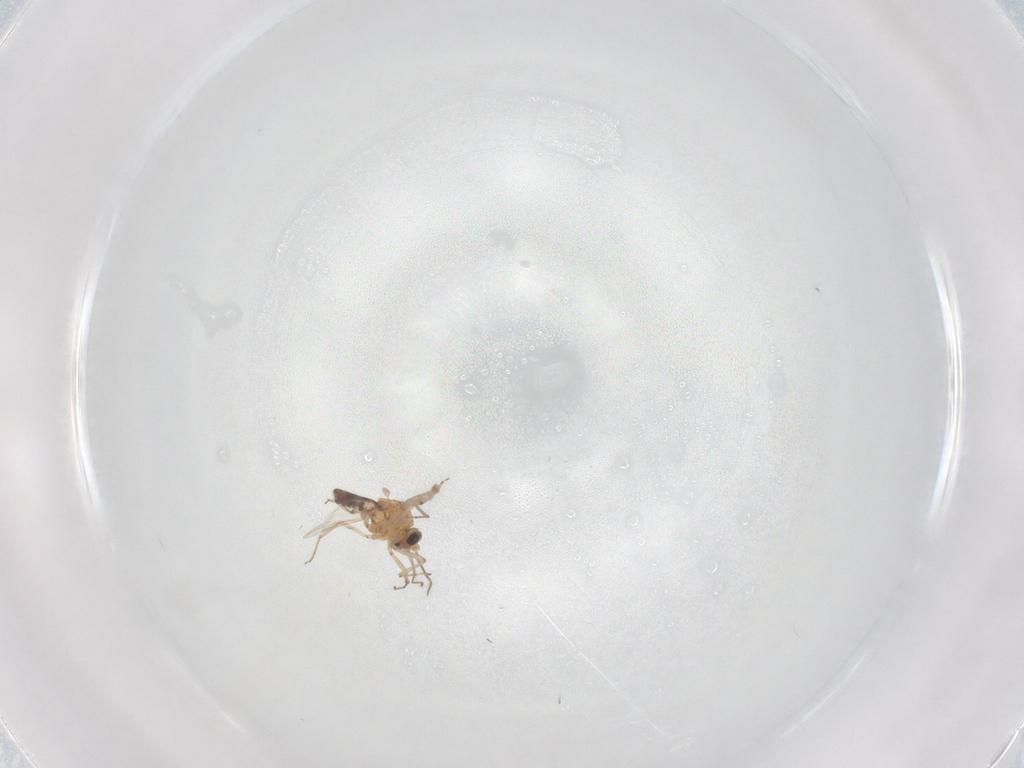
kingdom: Animalia
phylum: Arthropoda
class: Insecta
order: Diptera
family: Ceratopogonidae
